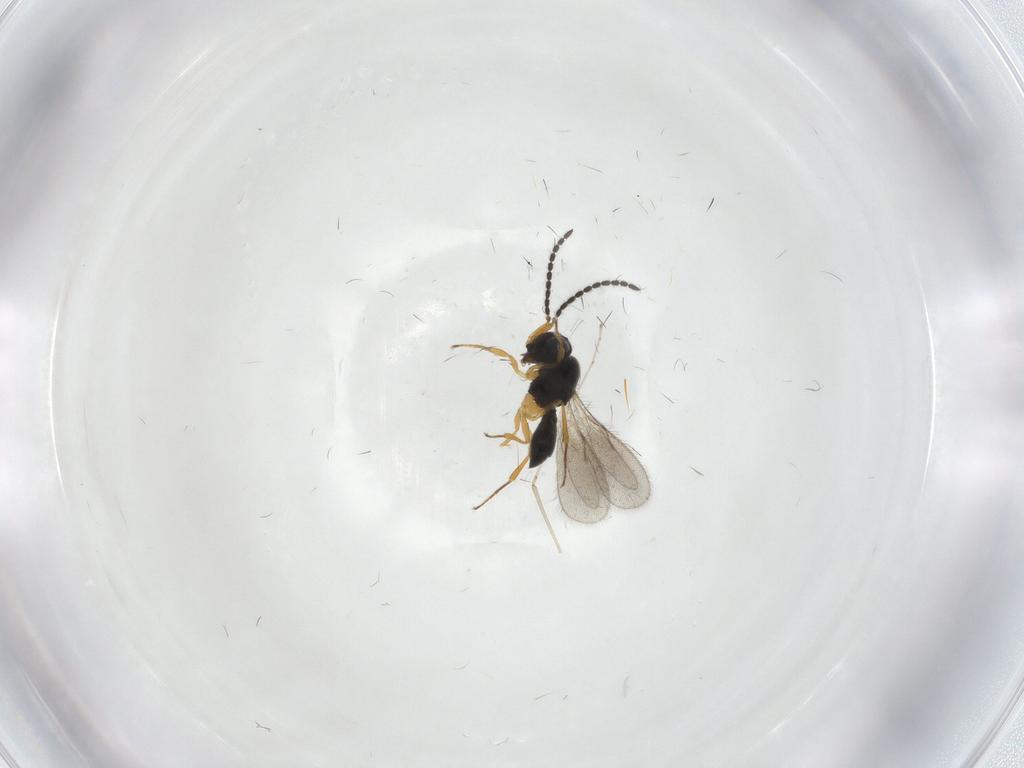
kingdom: Animalia
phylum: Arthropoda
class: Insecta
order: Hymenoptera
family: Scelionidae
